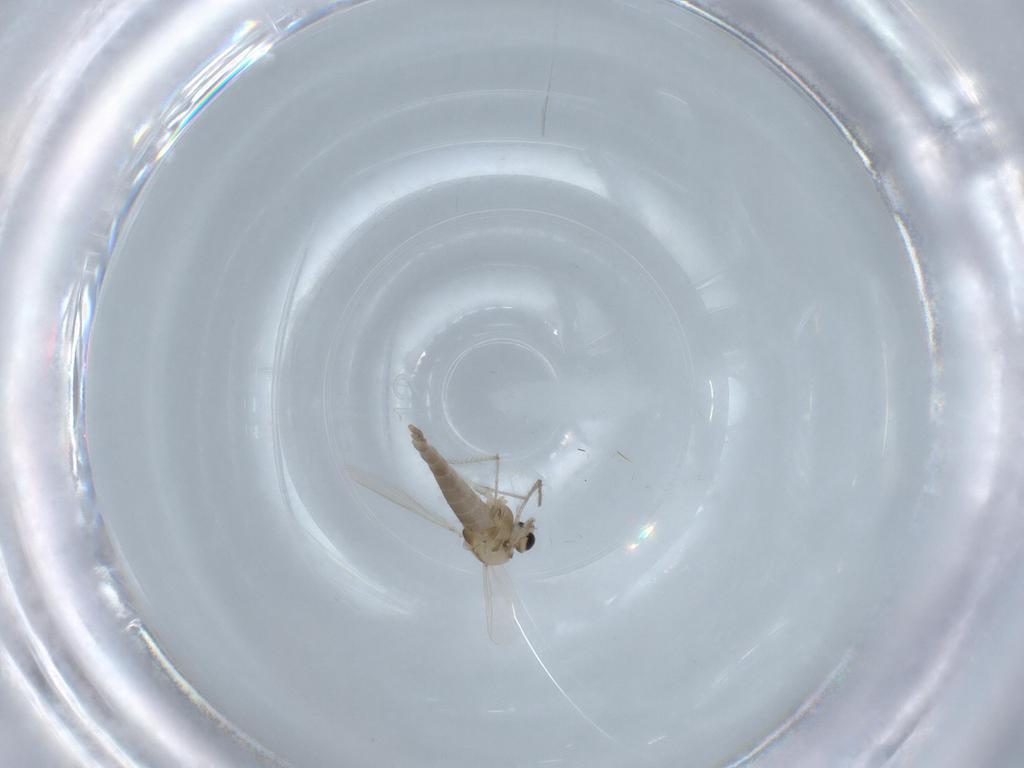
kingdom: Animalia
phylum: Arthropoda
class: Insecta
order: Diptera
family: Chironomidae
